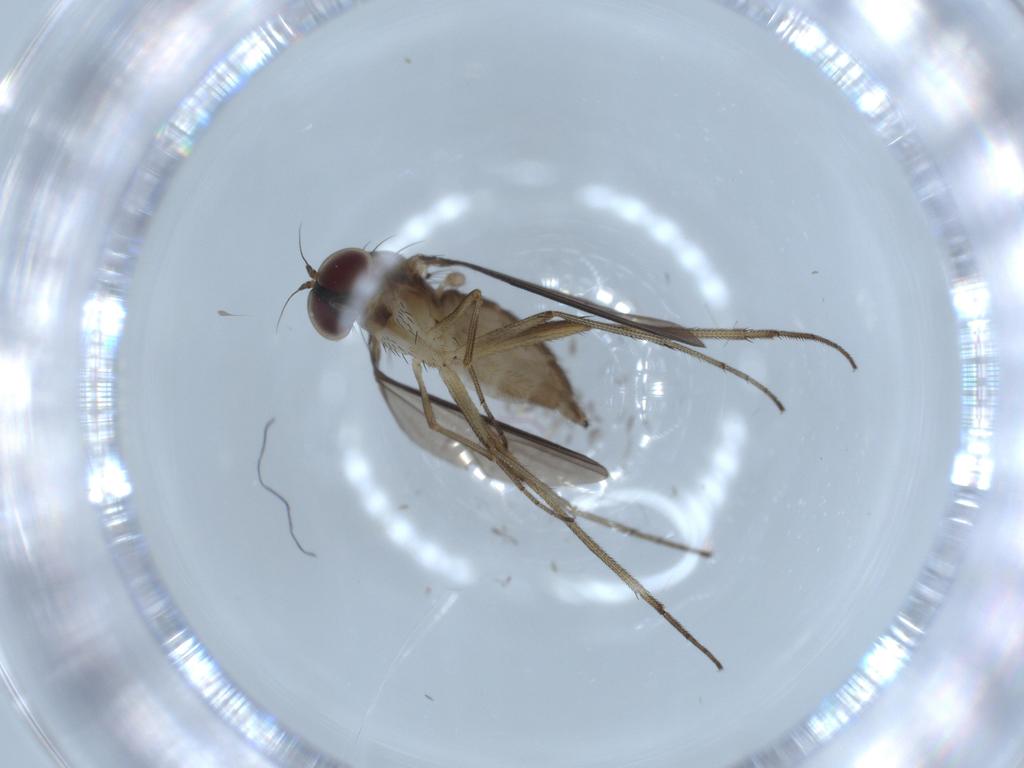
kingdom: Animalia
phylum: Arthropoda
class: Insecta
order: Diptera
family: Dolichopodidae
